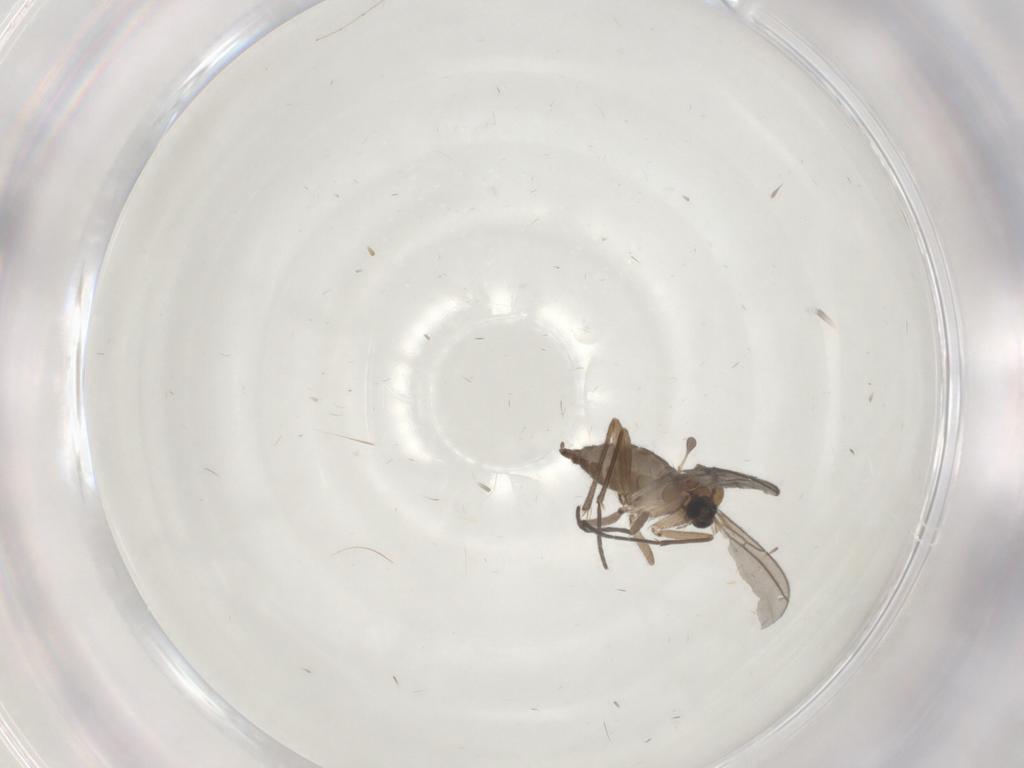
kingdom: Animalia
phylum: Arthropoda
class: Insecta
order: Diptera
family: Sciaridae
